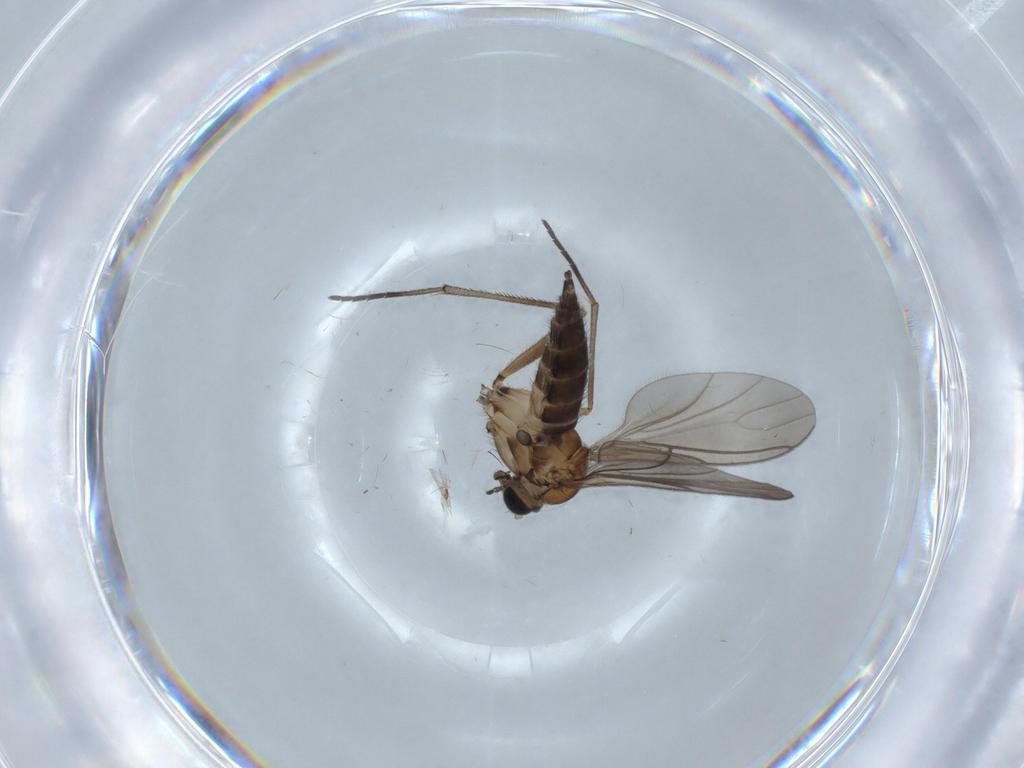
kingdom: Animalia
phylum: Arthropoda
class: Insecta
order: Diptera
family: Sciaridae
